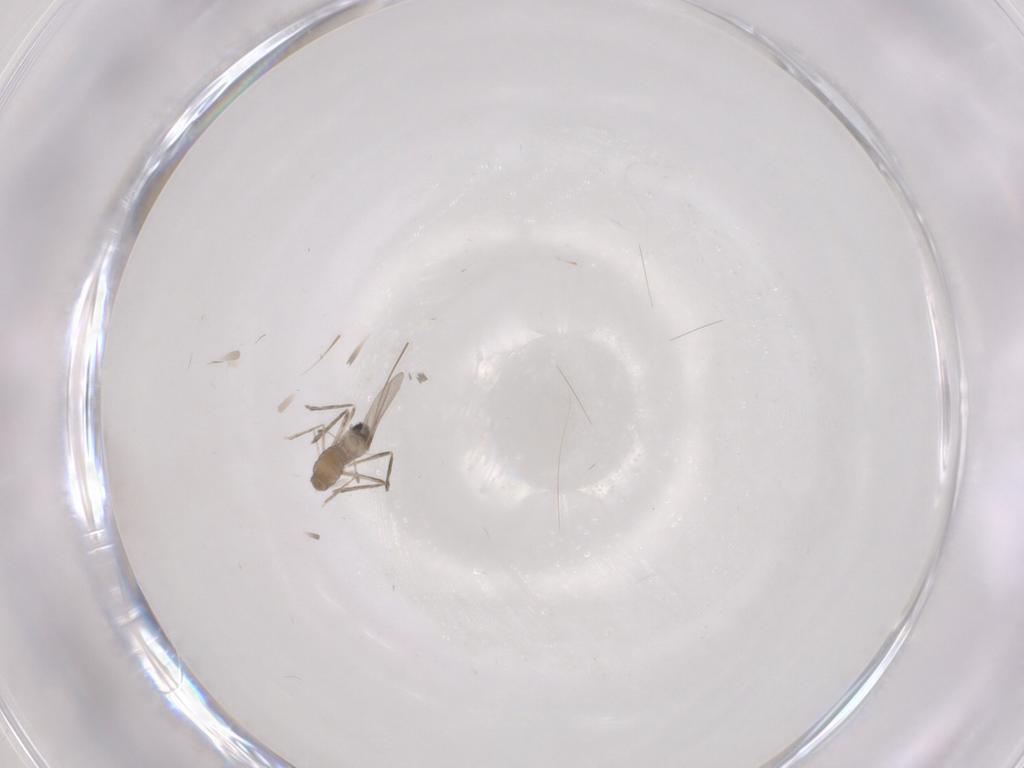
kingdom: Animalia
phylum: Arthropoda
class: Insecta
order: Diptera
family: Cecidomyiidae
